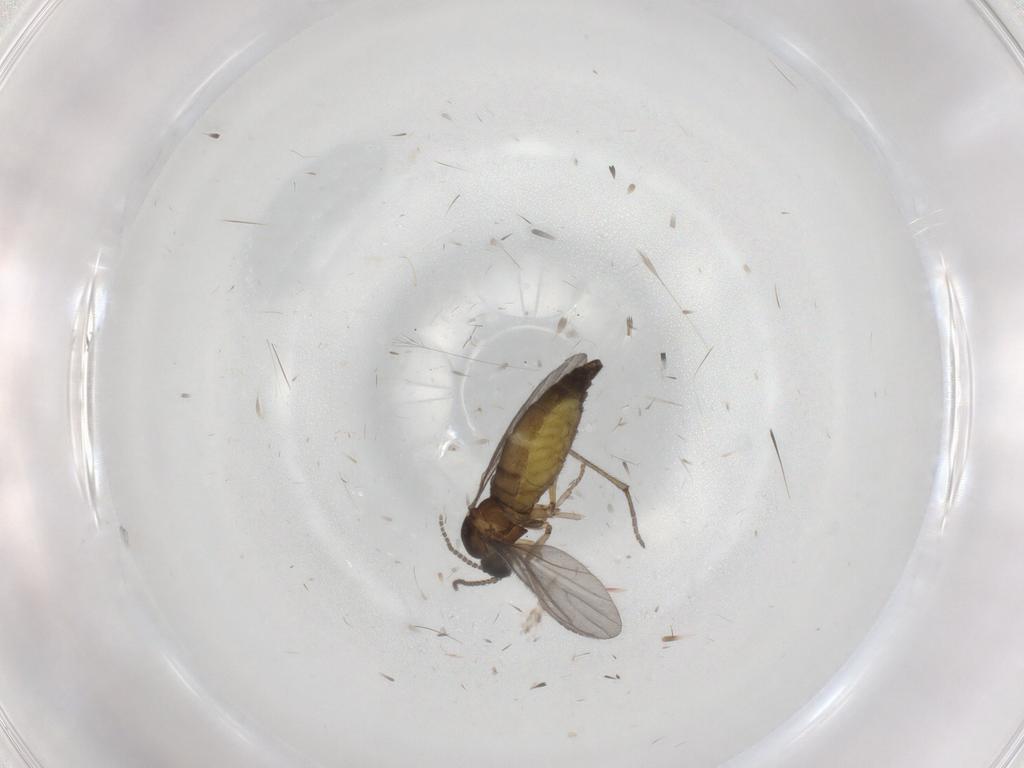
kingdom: Animalia
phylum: Arthropoda
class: Insecta
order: Diptera
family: Sciaridae
